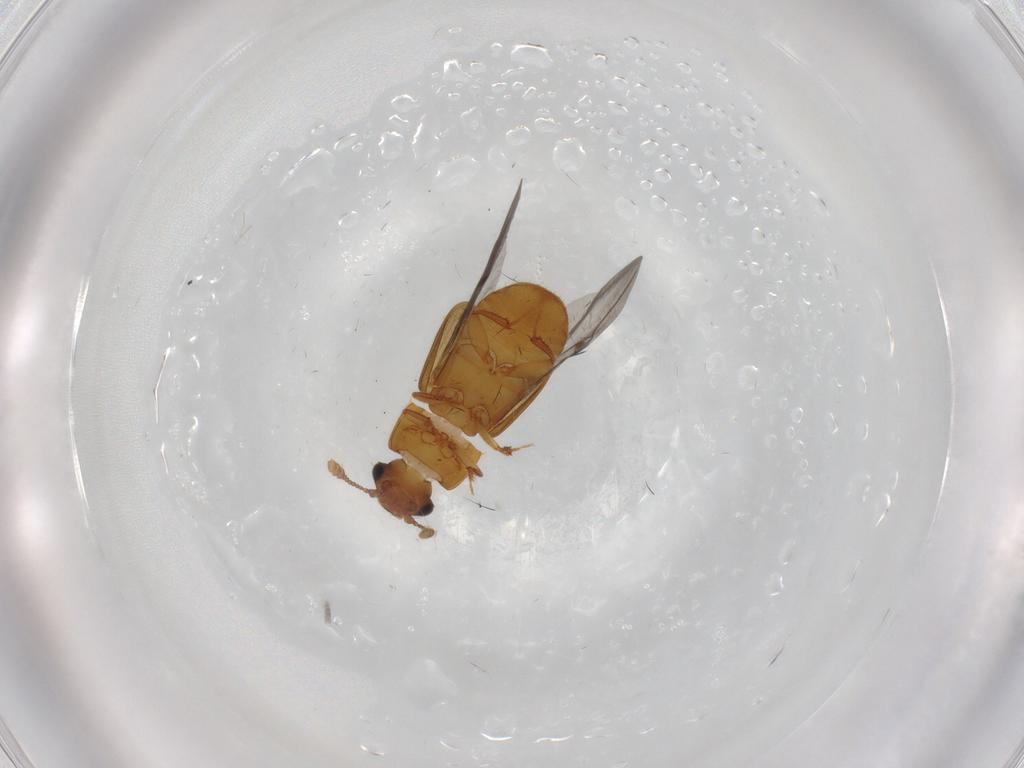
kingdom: Animalia
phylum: Arthropoda
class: Insecta
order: Coleoptera
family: Nitidulidae
